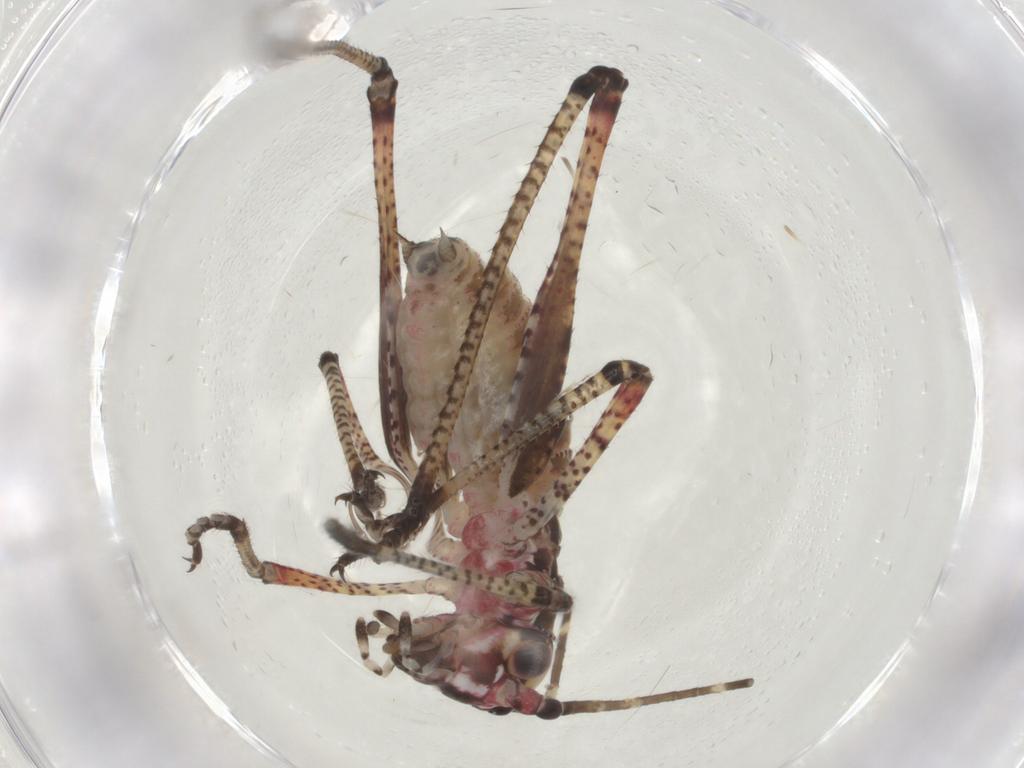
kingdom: Animalia
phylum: Arthropoda
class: Insecta
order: Orthoptera
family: Tettigoniidae
